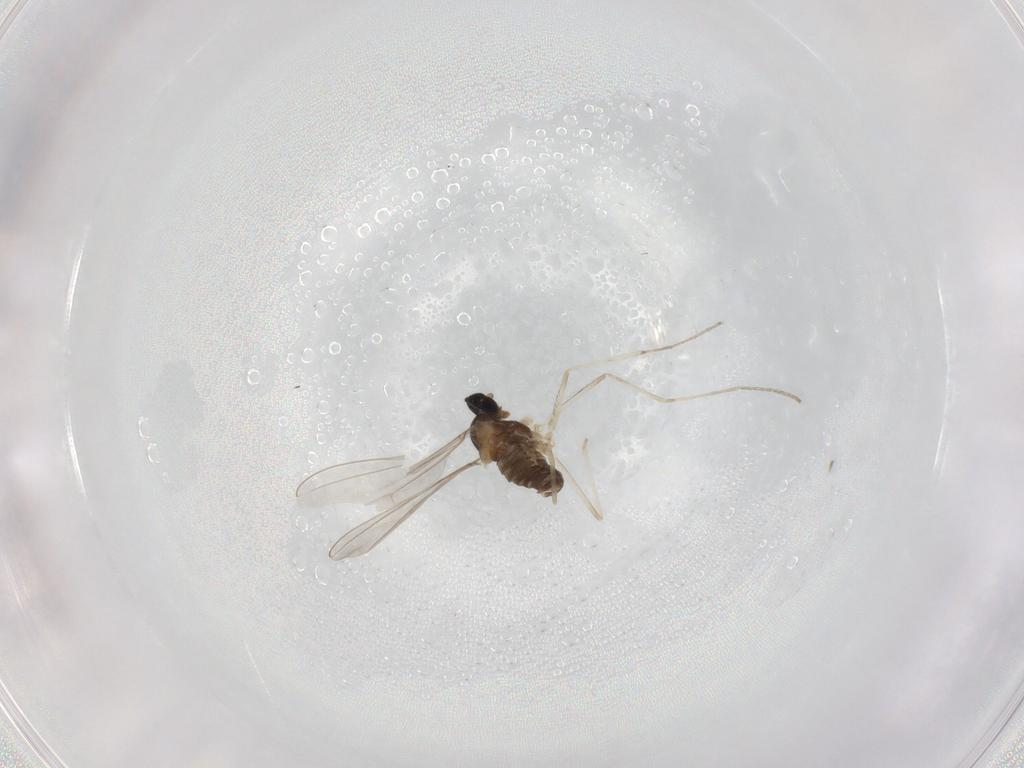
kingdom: Animalia
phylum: Arthropoda
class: Insecta
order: Diptera
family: Cecidomyiidae
